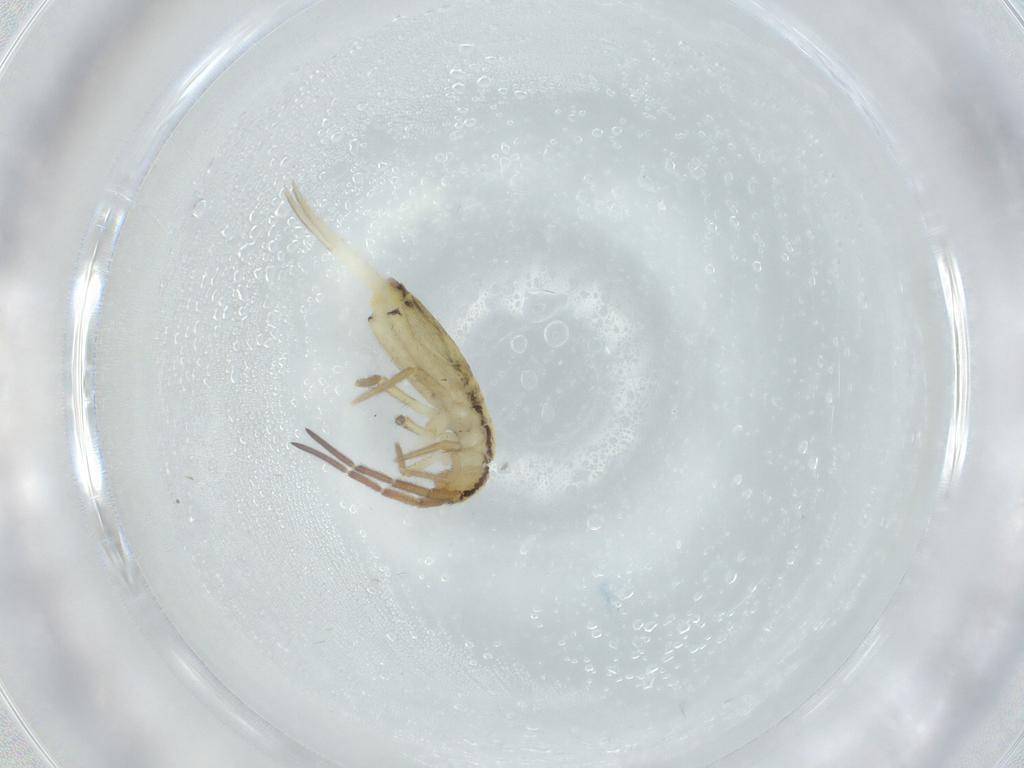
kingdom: Animalia
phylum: Arthropoda
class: Collembola
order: Entomobryomorpha
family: Entomobryidae
